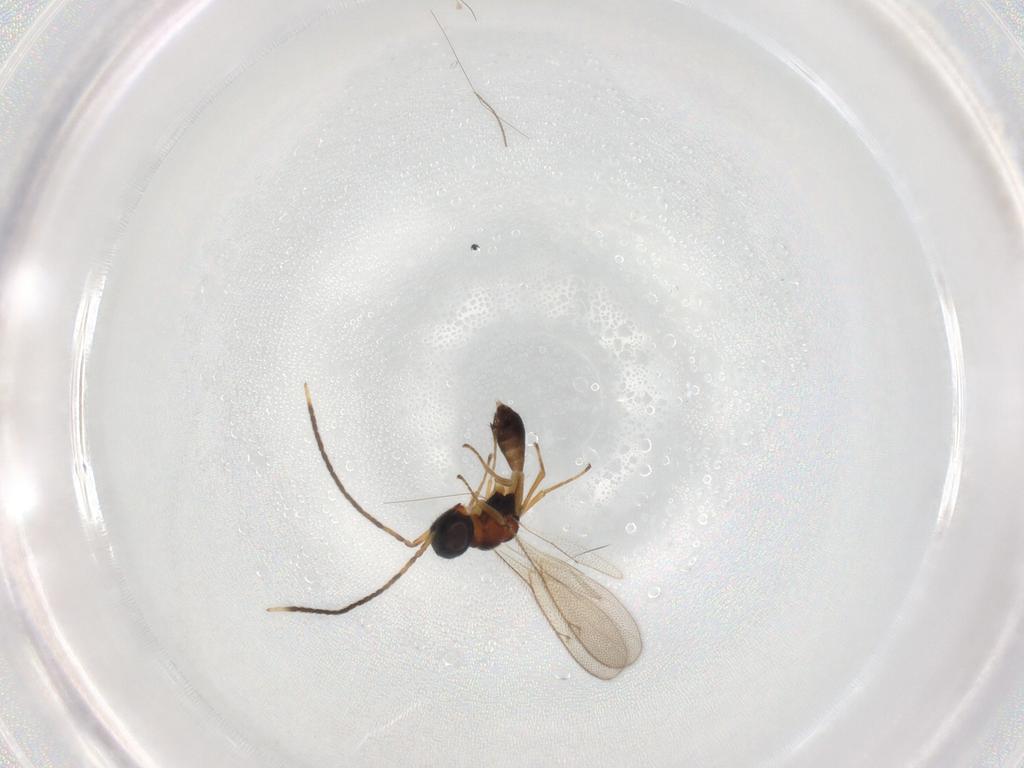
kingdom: Animalia
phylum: Arthropoda
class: Insecta
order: Hymenoptera
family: Pteromalidae
